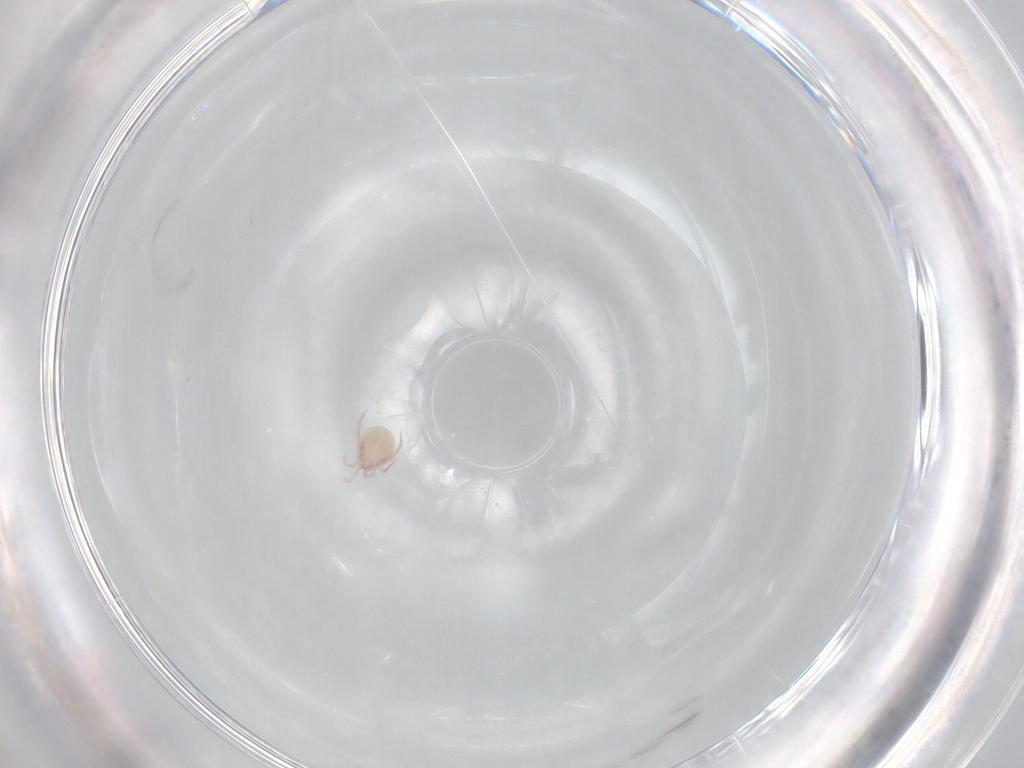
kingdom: Animalia
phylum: Arthropoda
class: Arachnida
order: Trombidiformes
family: Lebertiidae
